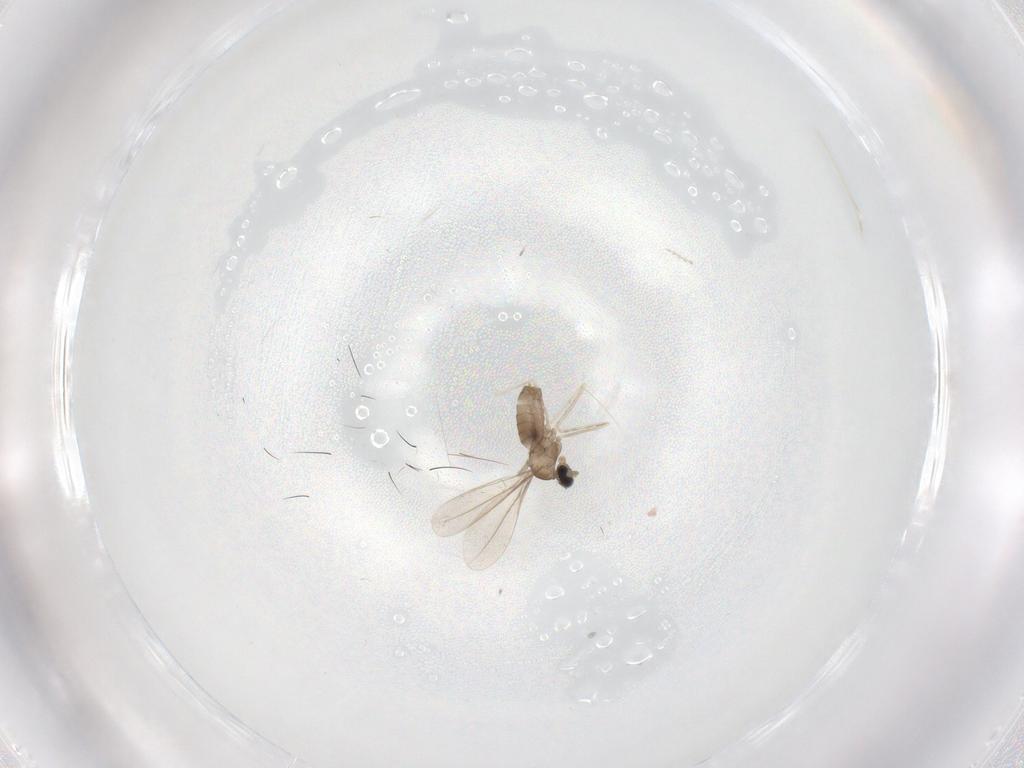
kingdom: Animalia
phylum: Arthropoda
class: Insecta
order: Diptera
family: Cecidomyiidae
